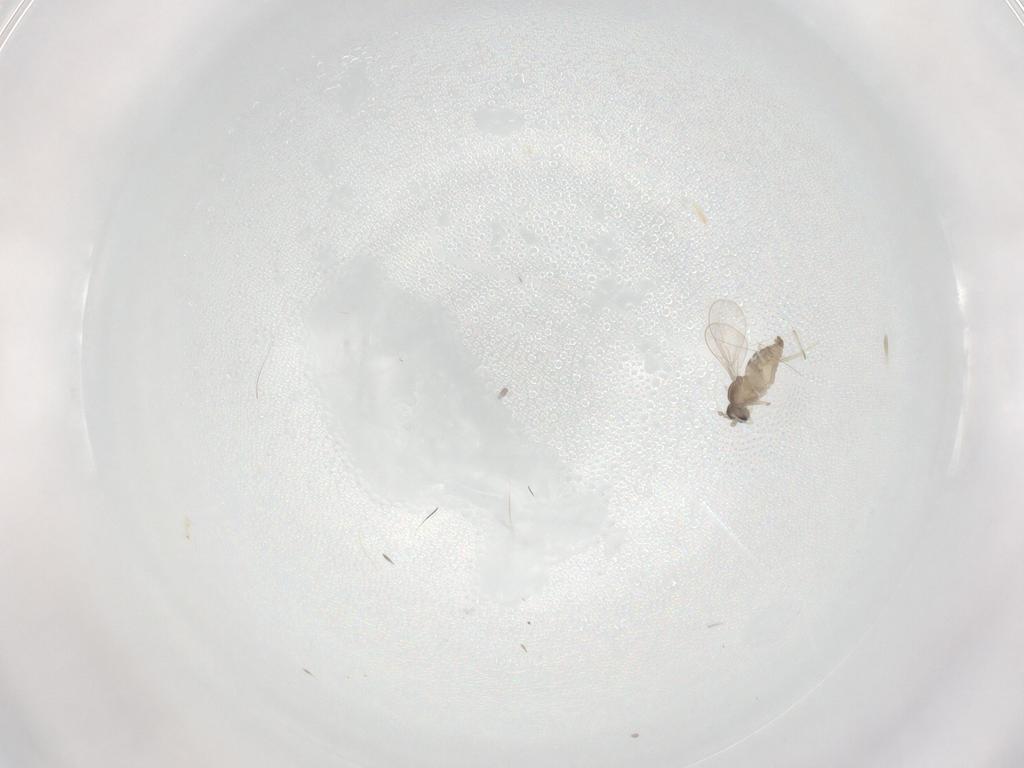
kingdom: Animalia
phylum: Arthropoda
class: Insecta
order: Diptera
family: Cecidomyiidae
